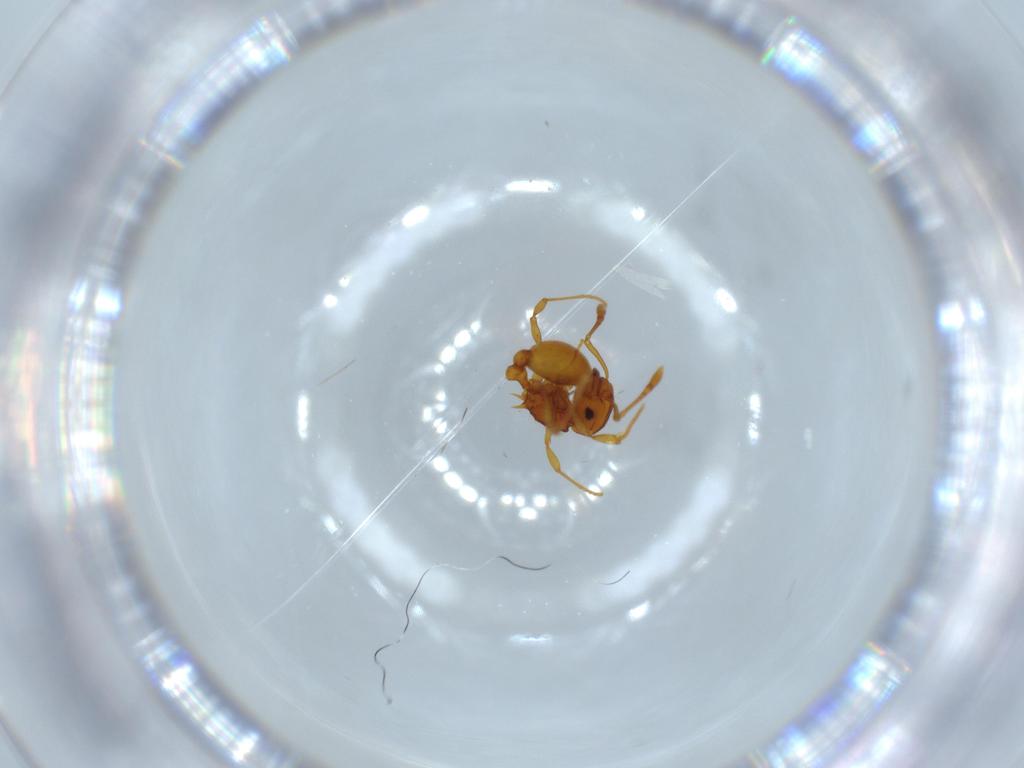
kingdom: Animalia
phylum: Arthropoda
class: Insecta
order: Hymenoptera
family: Formicidae
